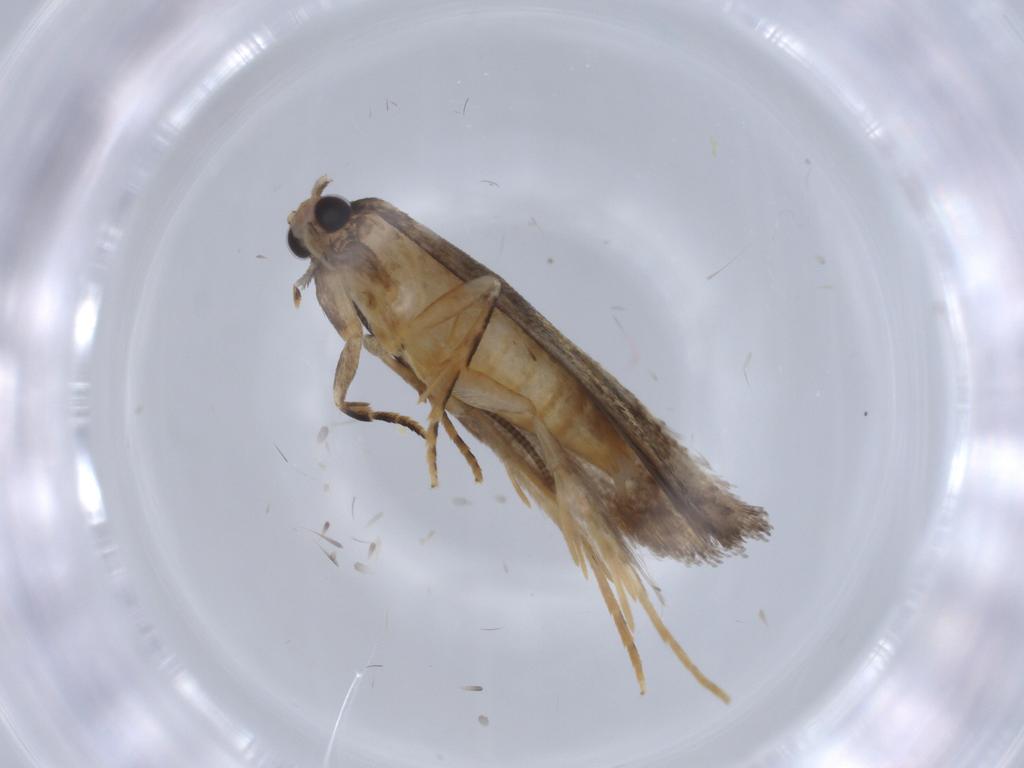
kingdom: Animalia
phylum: Arthropoda
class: Insecta
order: Lepidoptera
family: Tineidae
